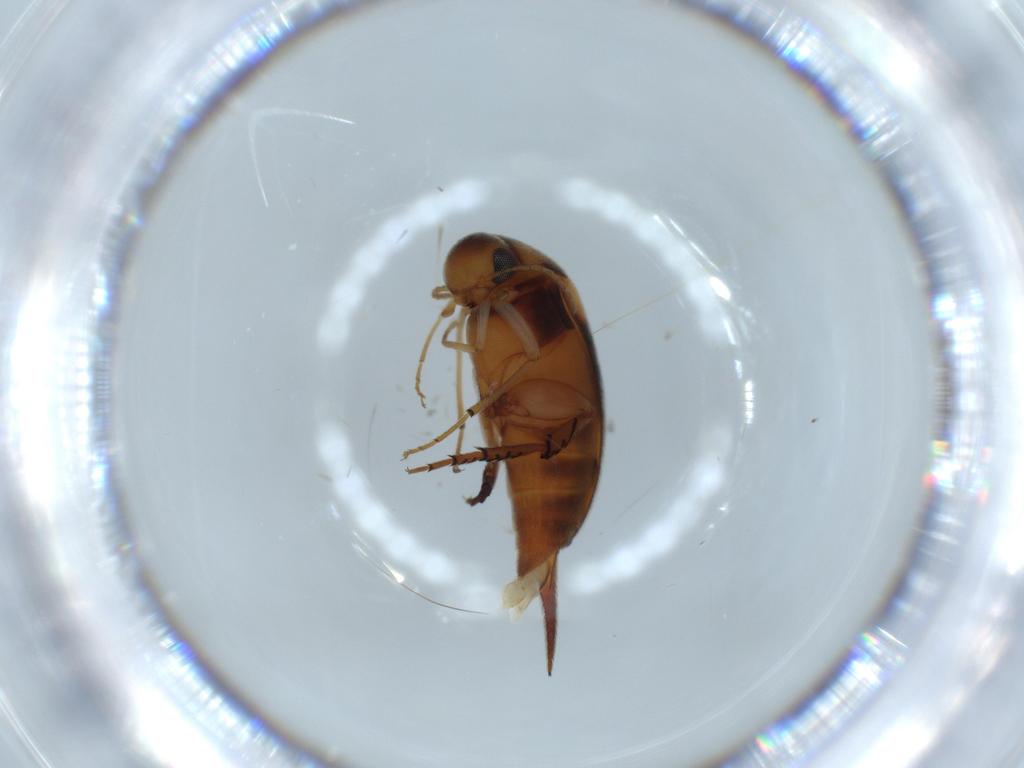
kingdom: Animalia
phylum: Arthropoda
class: Insecta
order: Coleoptera
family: Mordellidae
